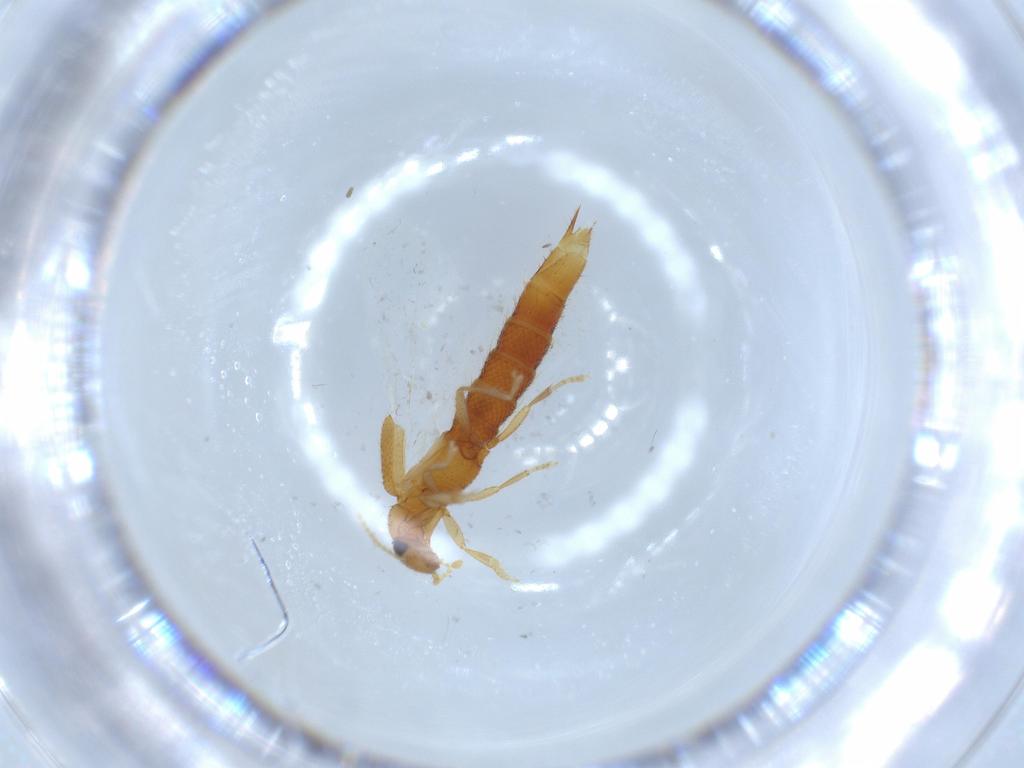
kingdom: Animalia
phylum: Arthropoda
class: Insecta
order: Coleoptera
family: Staphylinidae
